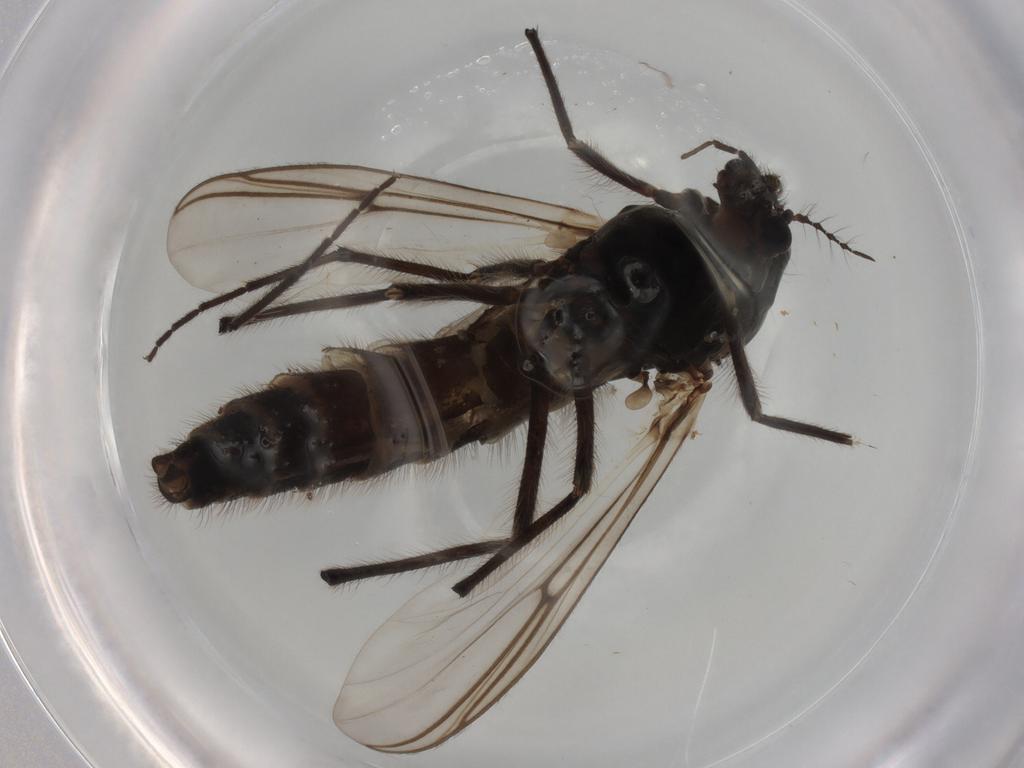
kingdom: Animalia
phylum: Arthropoda
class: Insecta
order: Diptera
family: Chironomidae
